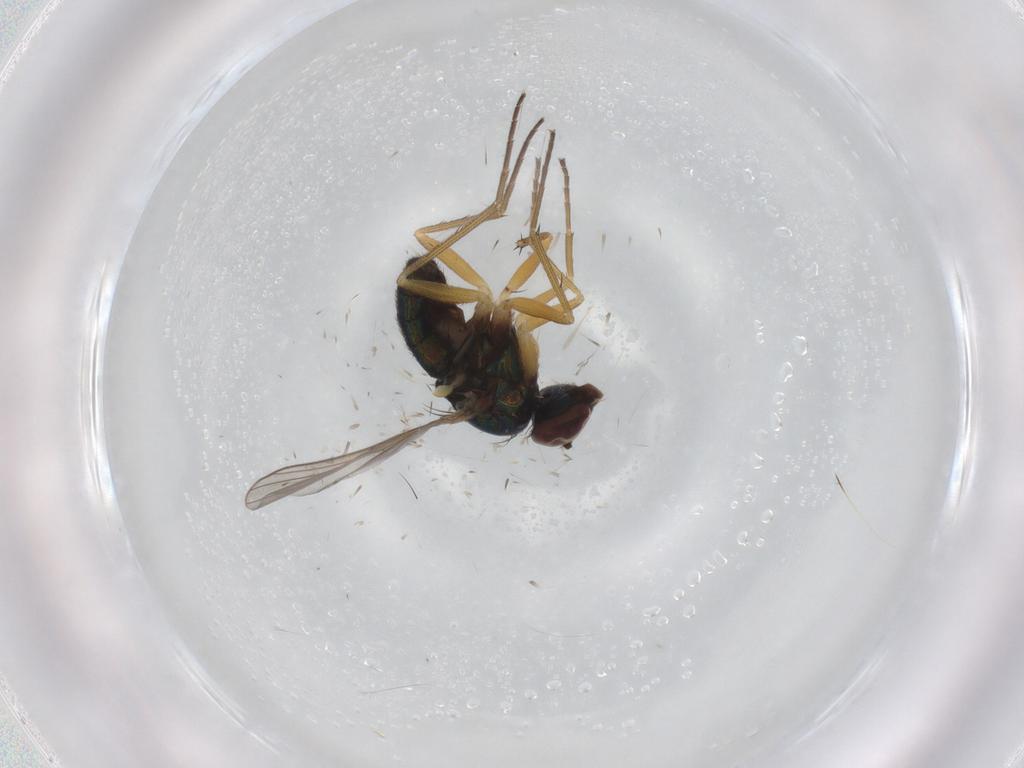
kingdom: Animalia
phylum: Arthropoda
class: Insecta
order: Diptera
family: Dolichopodidae
